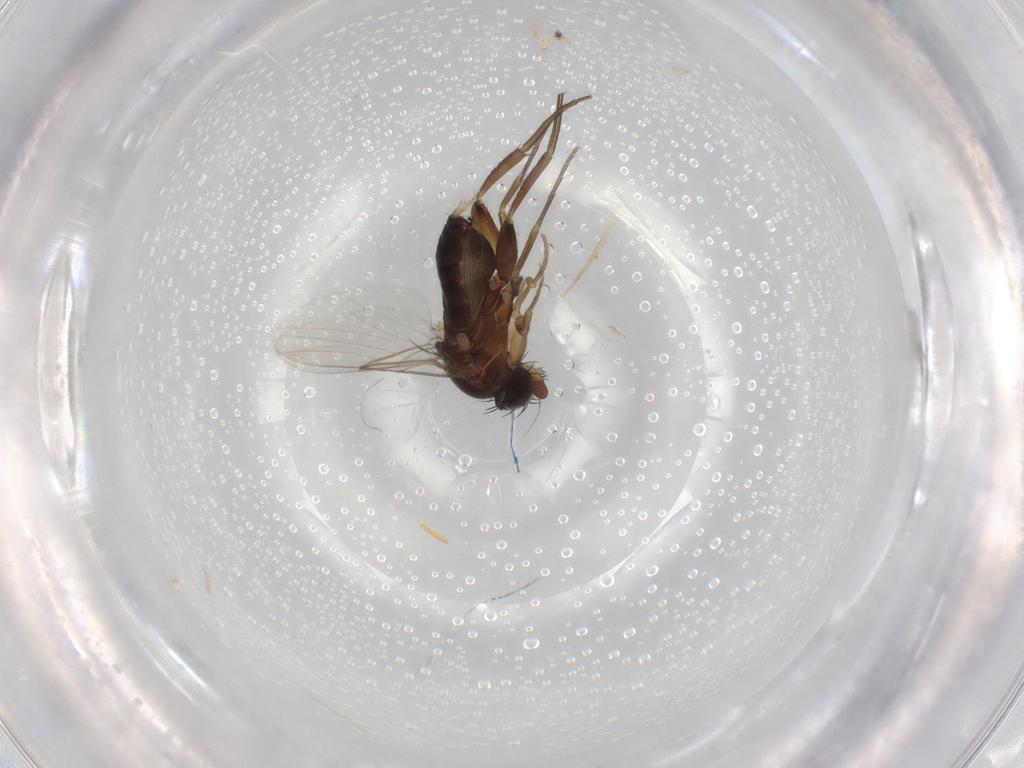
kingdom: Animalia
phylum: Arthropoda
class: Insecta
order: Diptera
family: Phoridae
